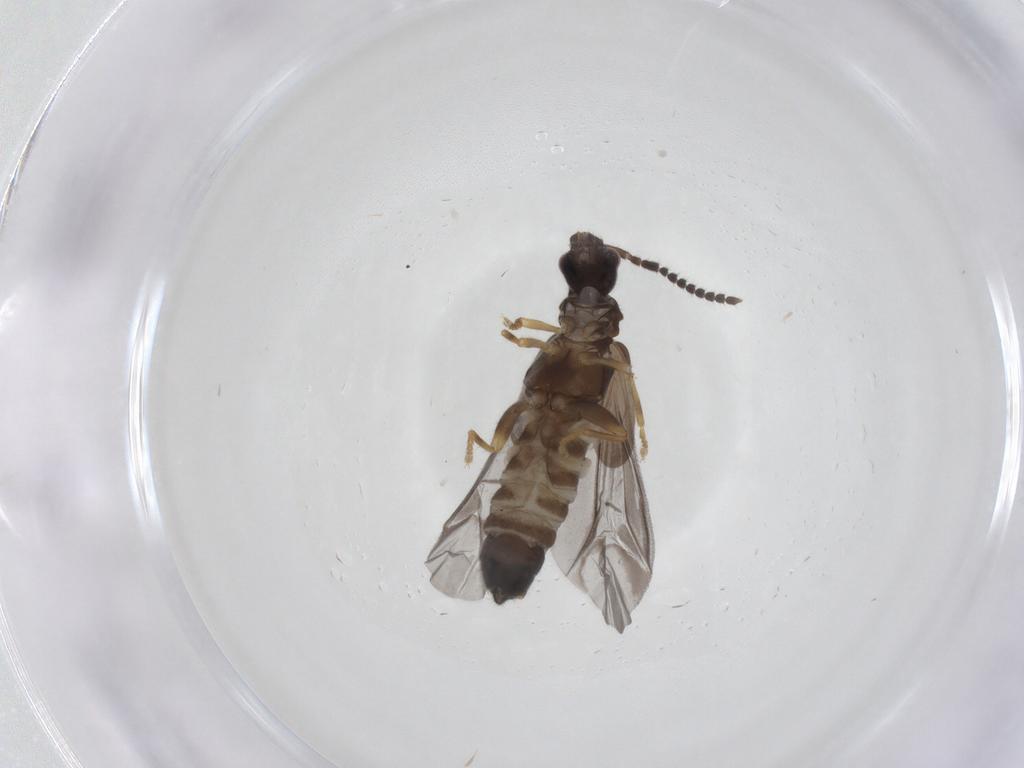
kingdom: Animalia
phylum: Arthropoda
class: Insecta
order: Coleoptera
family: Cantharidae
